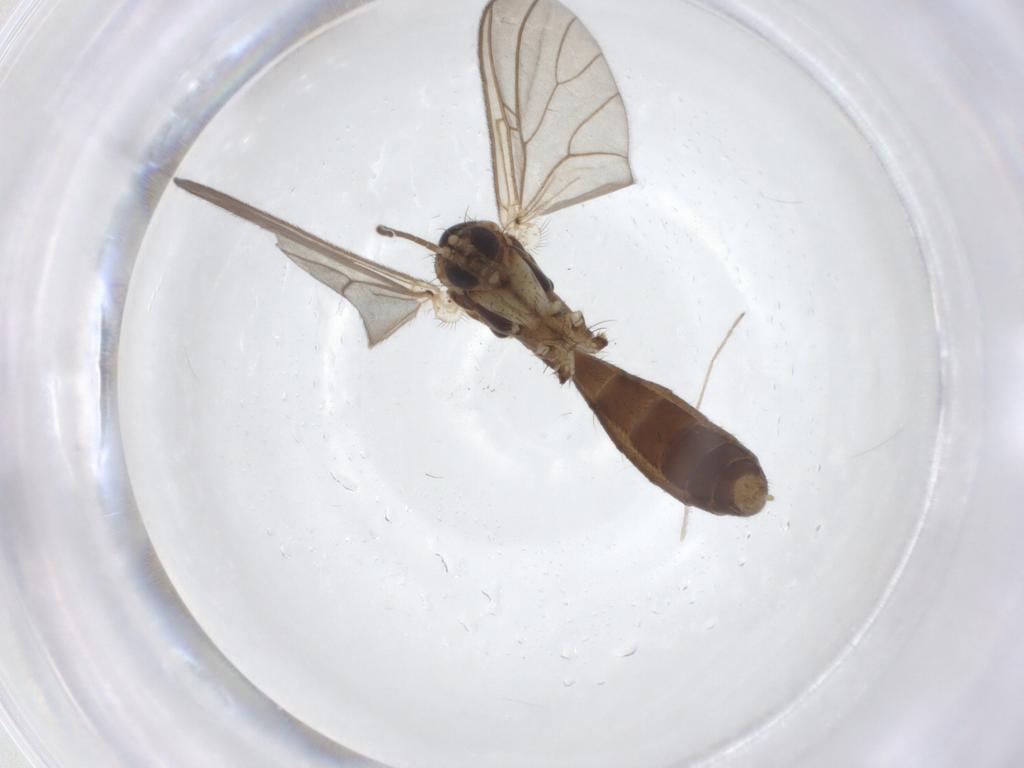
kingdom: Animalia
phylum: Arthropoda
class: Insecta
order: Diptera
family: Mycetophilidae
